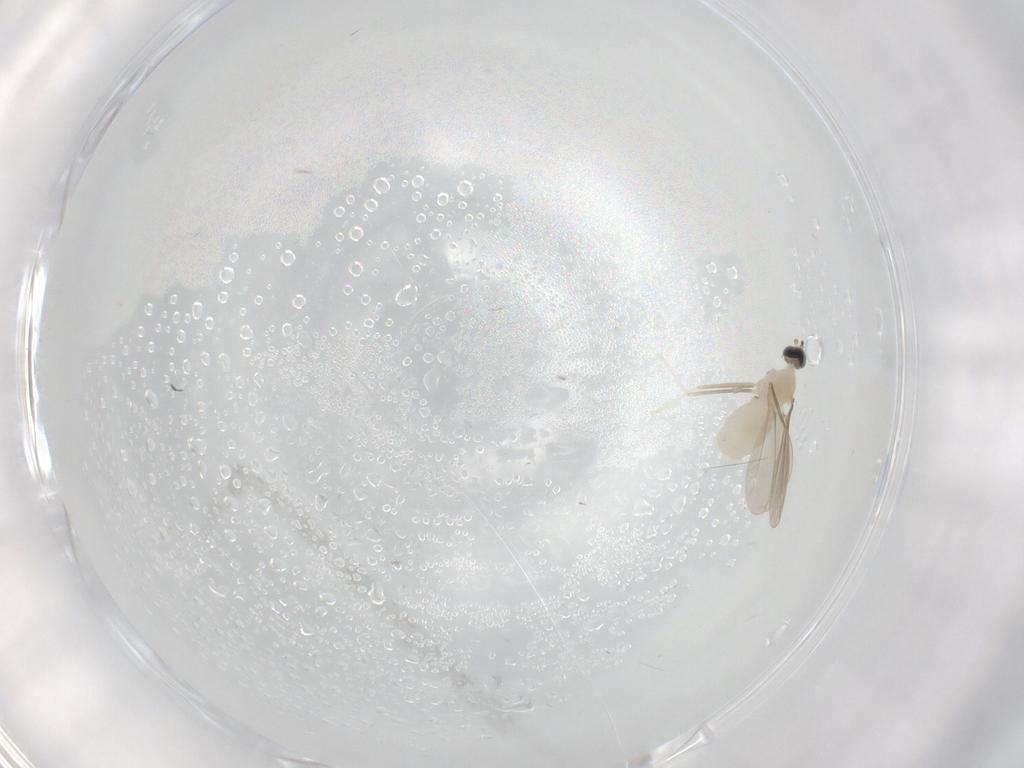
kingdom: Animalia
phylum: Arthropoda
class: Insecta
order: Diptera
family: Cecidomyiidae
